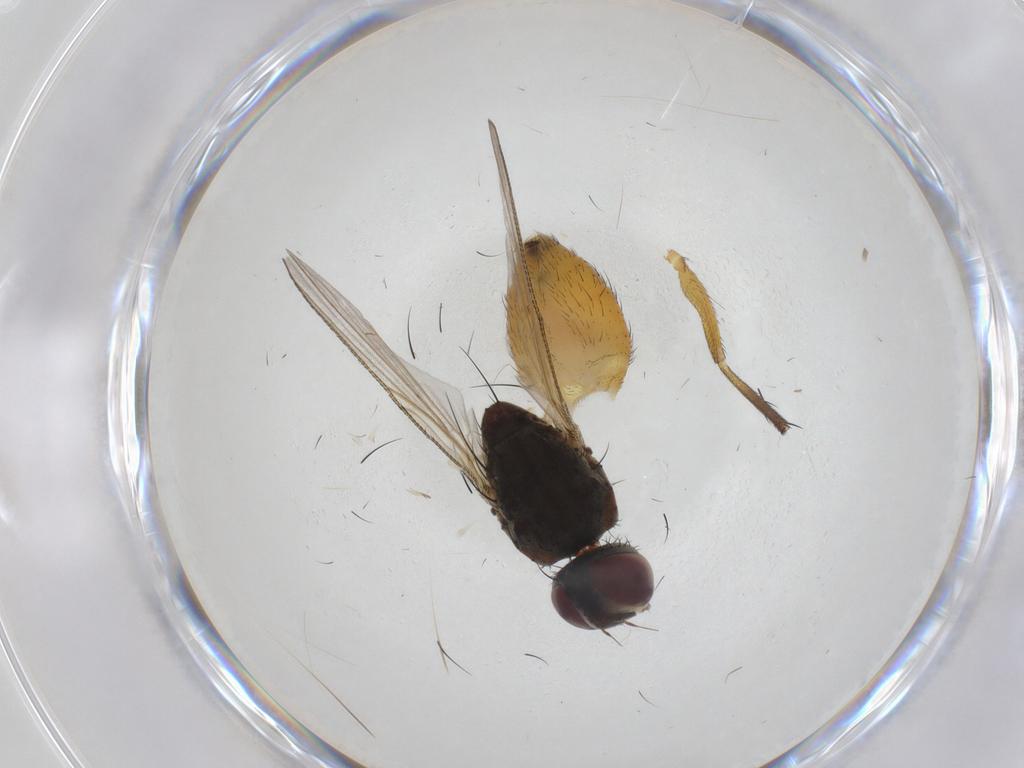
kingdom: Animalia
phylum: Arthropoda
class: Insecta
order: Diptera
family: Muscidae
